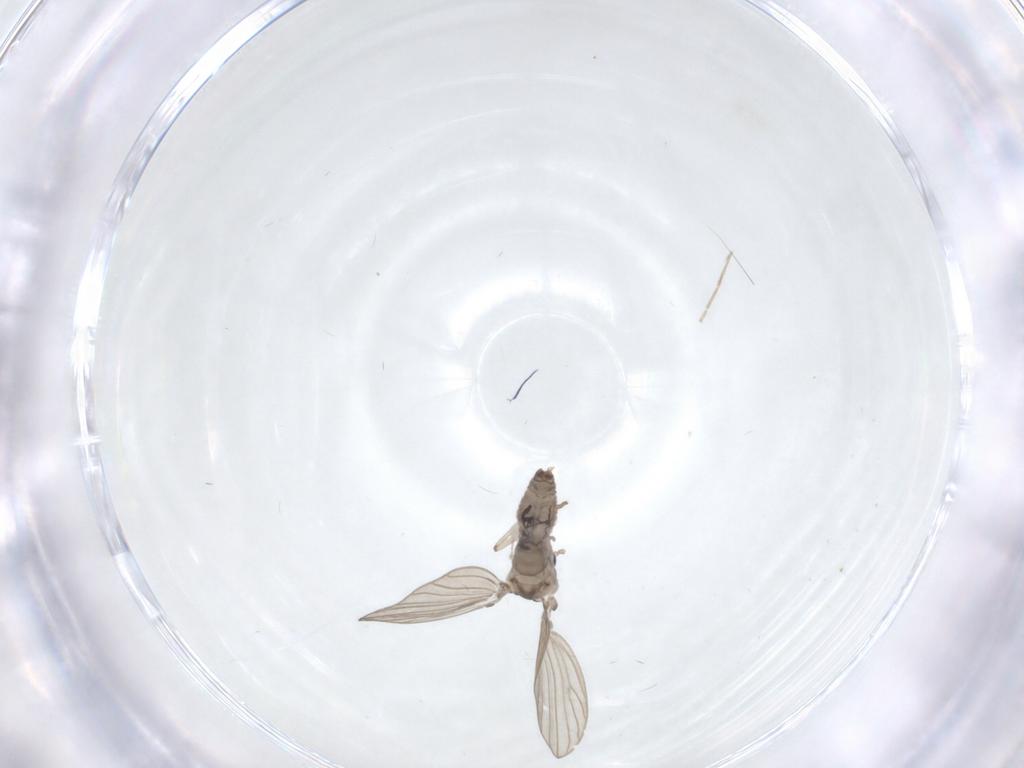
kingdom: Animalia
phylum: Arthropoda
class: Insecta
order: Diptera
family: Psychodidae
